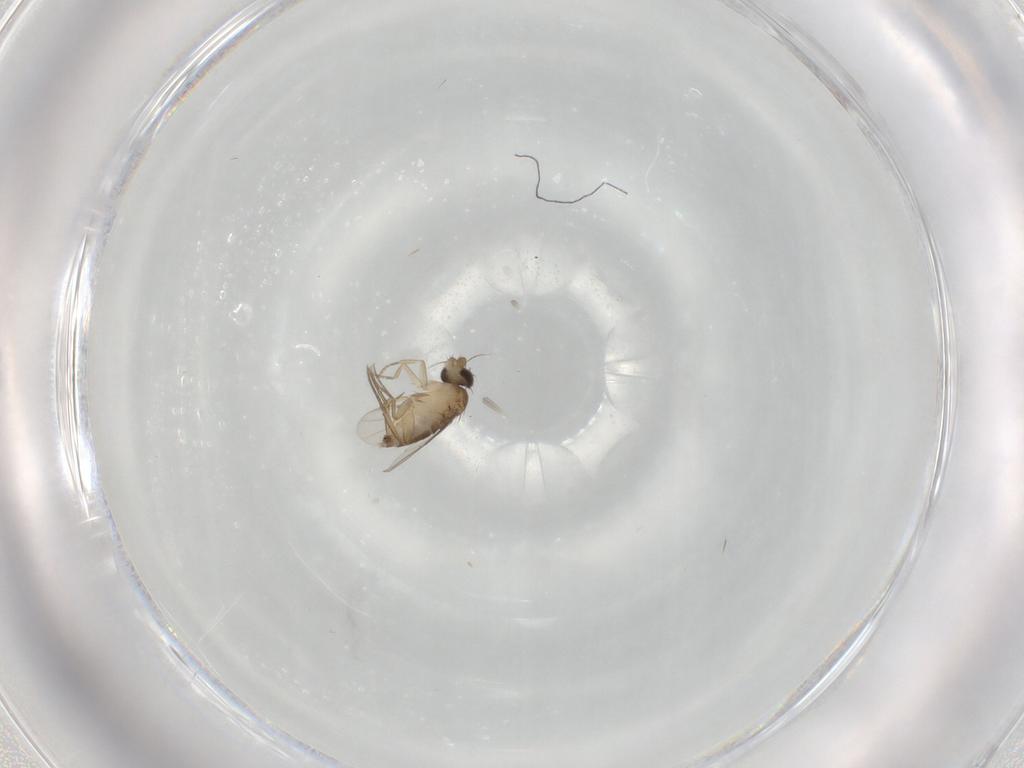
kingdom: Animalia
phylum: Arthropoda
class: Insecta
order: Diptera
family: Phoridae
